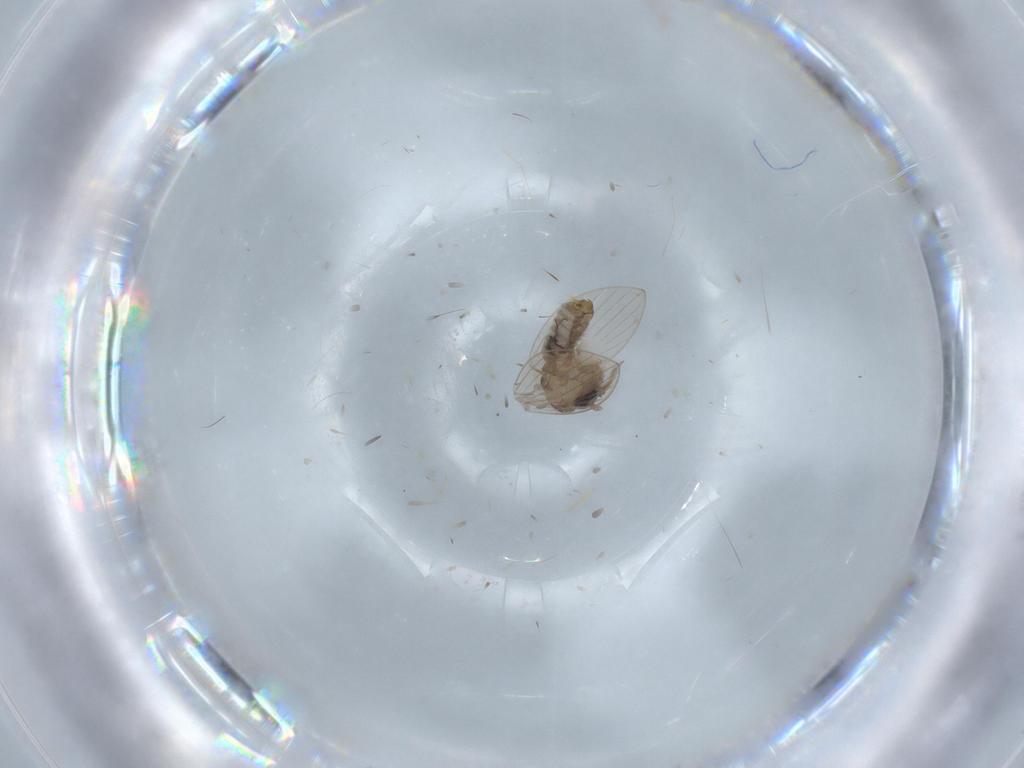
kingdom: Animalia
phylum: Arthropoda
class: Insecta
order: Diptera
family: Psychodidae
